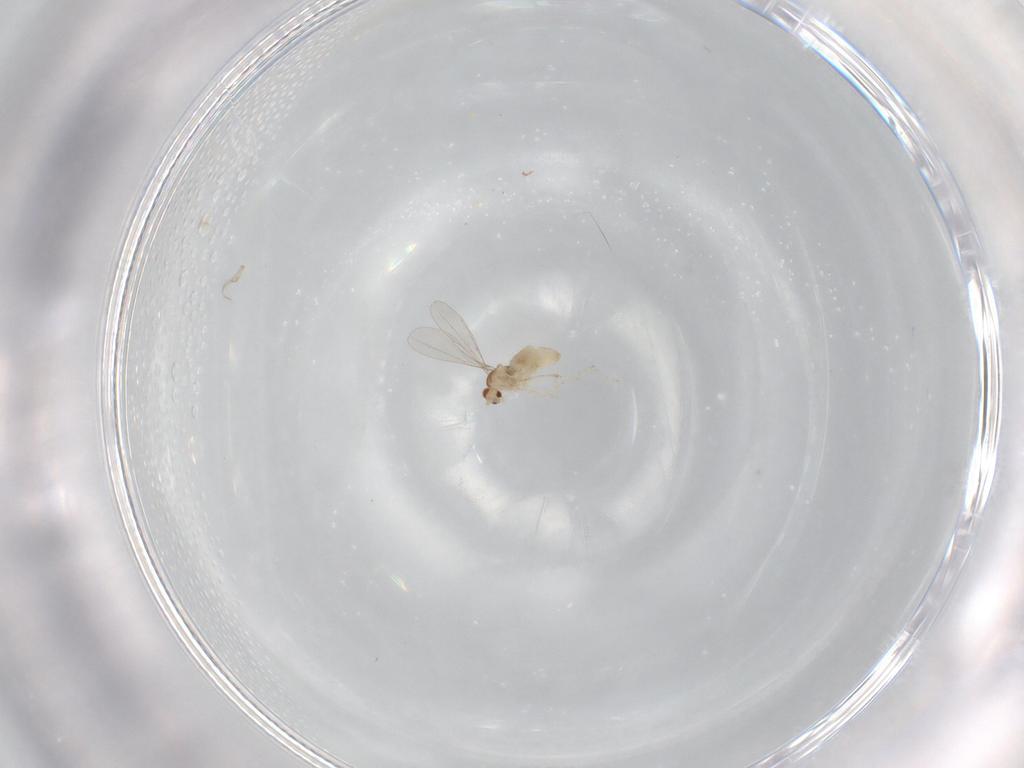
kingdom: Animalia
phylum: Arthropoda
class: Insecta
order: Diptera
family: Cecidomyiidae
